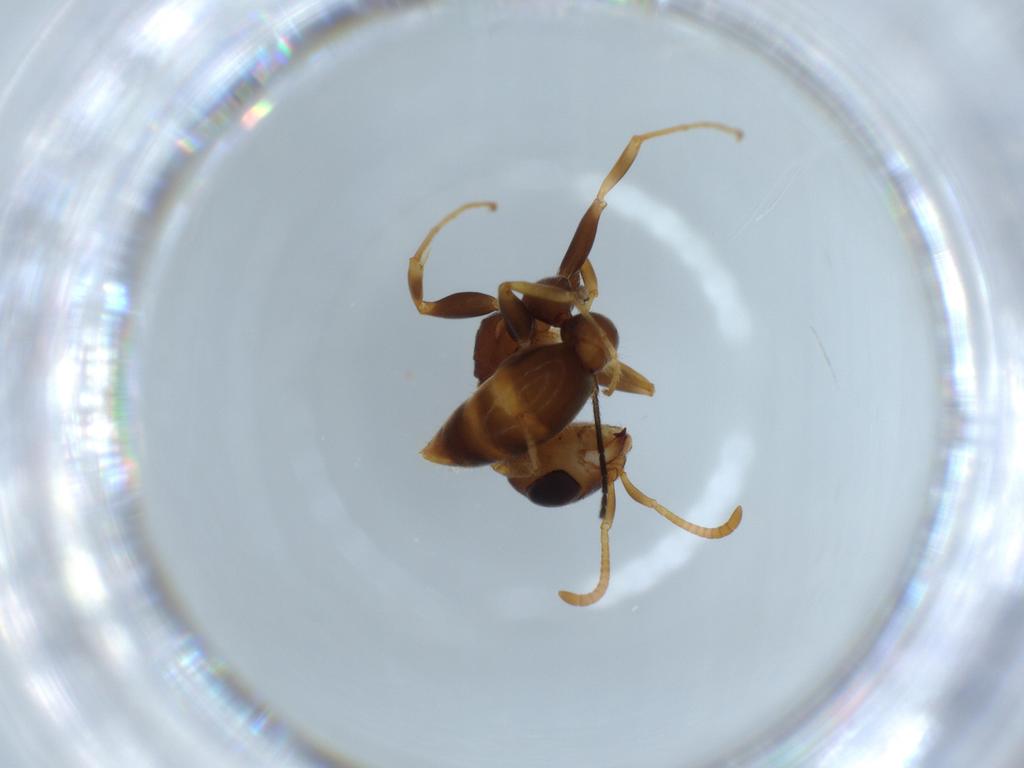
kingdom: Animalia
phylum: Arthropoda
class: Insecta
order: Hymenoptera
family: Formicidae
